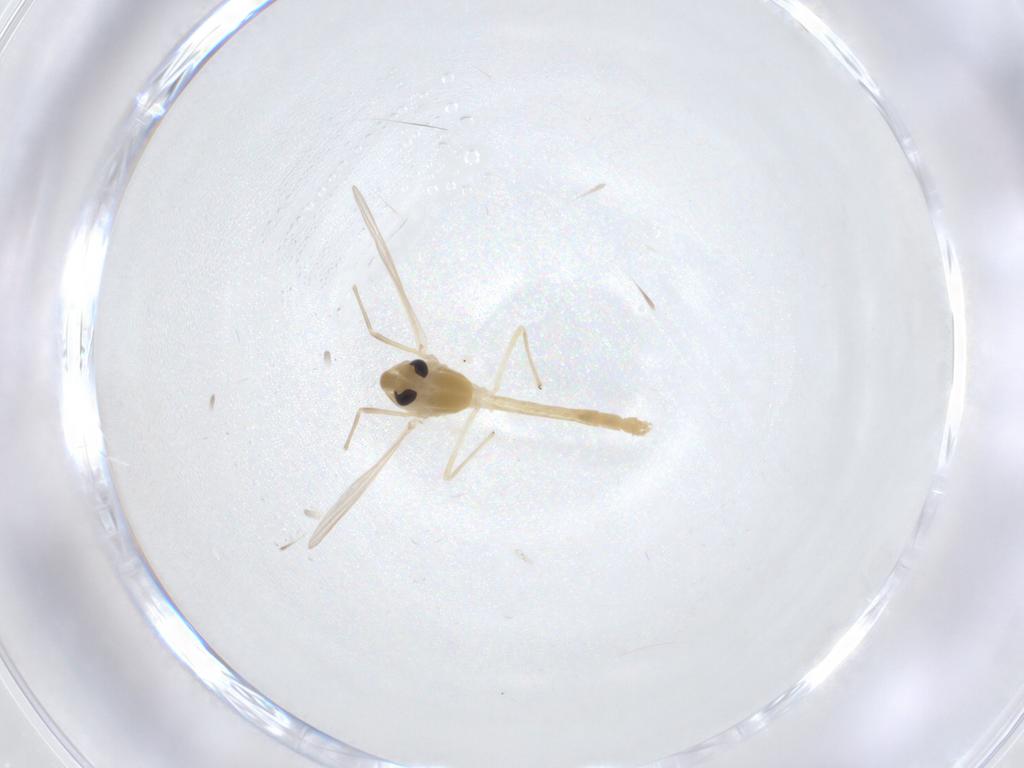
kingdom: Animalia
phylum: Arthropoda
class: Insecta
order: Diptera
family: Chironomidae
